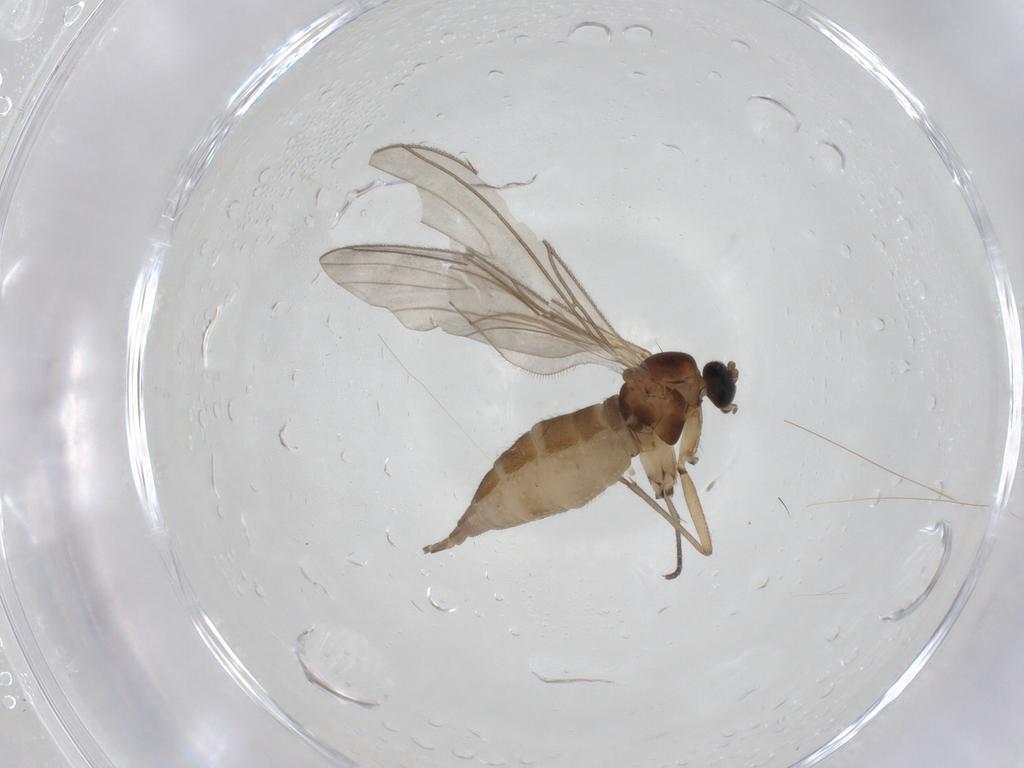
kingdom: Animalia
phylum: Arthropoda
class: Insecta
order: Diptera
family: Sciaridae
